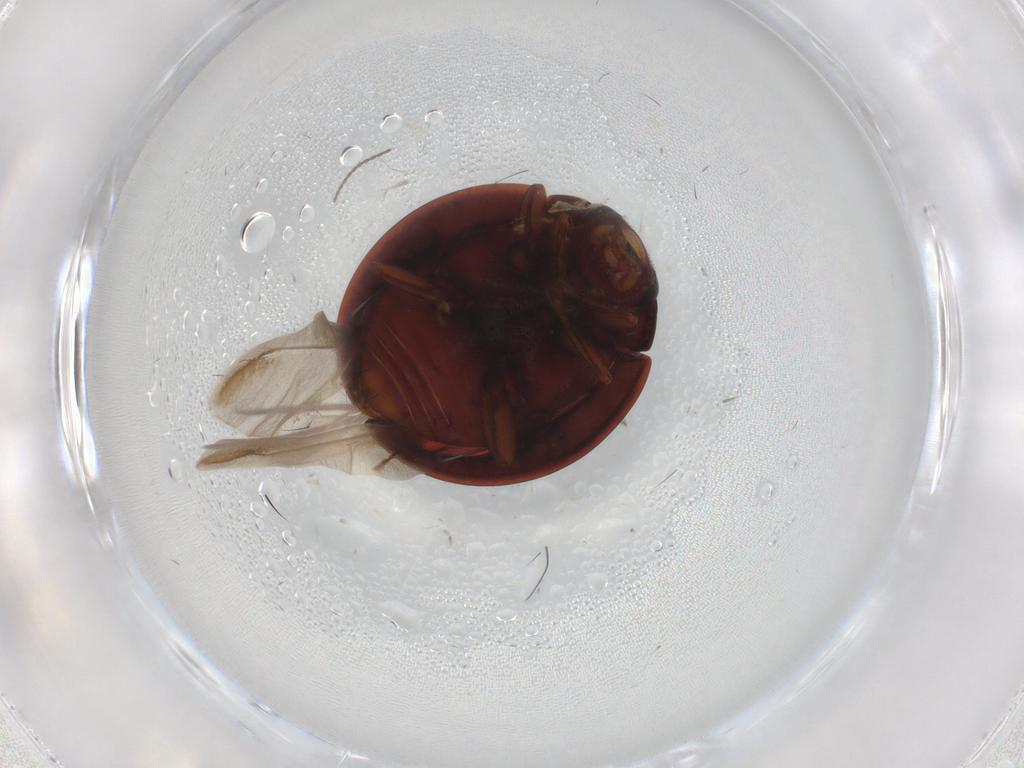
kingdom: Animalia
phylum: Arthropoda
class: Insecta
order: Coleoptera
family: Coccinellidae
